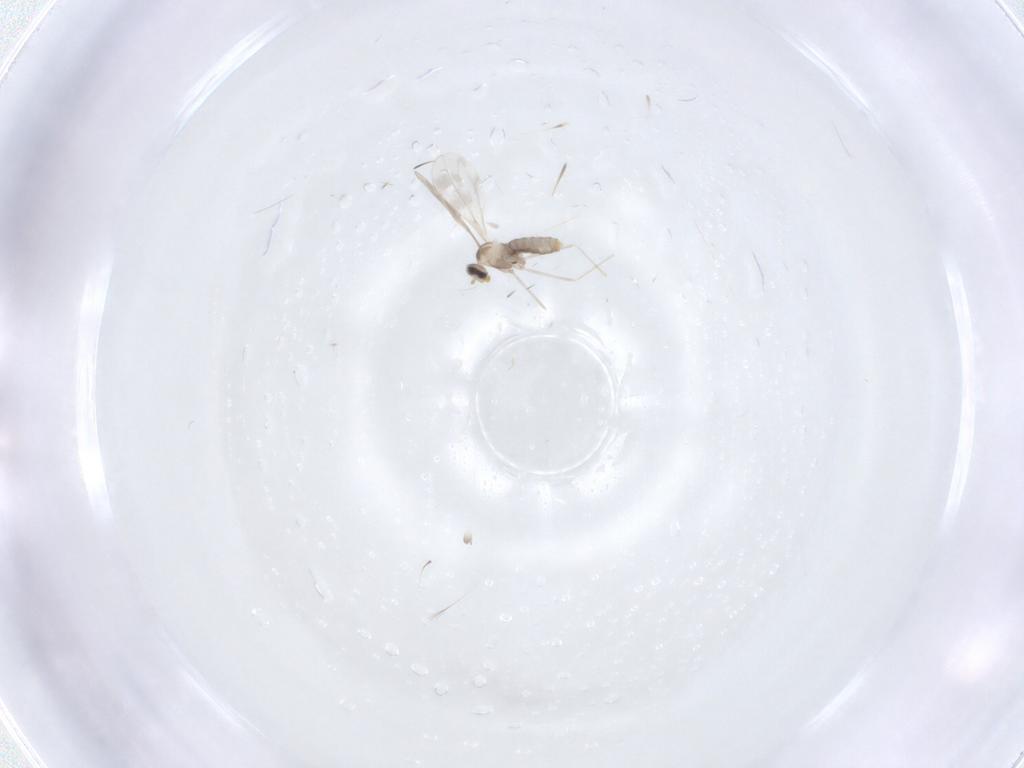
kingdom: Animalia
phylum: Arthropoda
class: Insecta
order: Diptera
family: Cecidomyiidae
